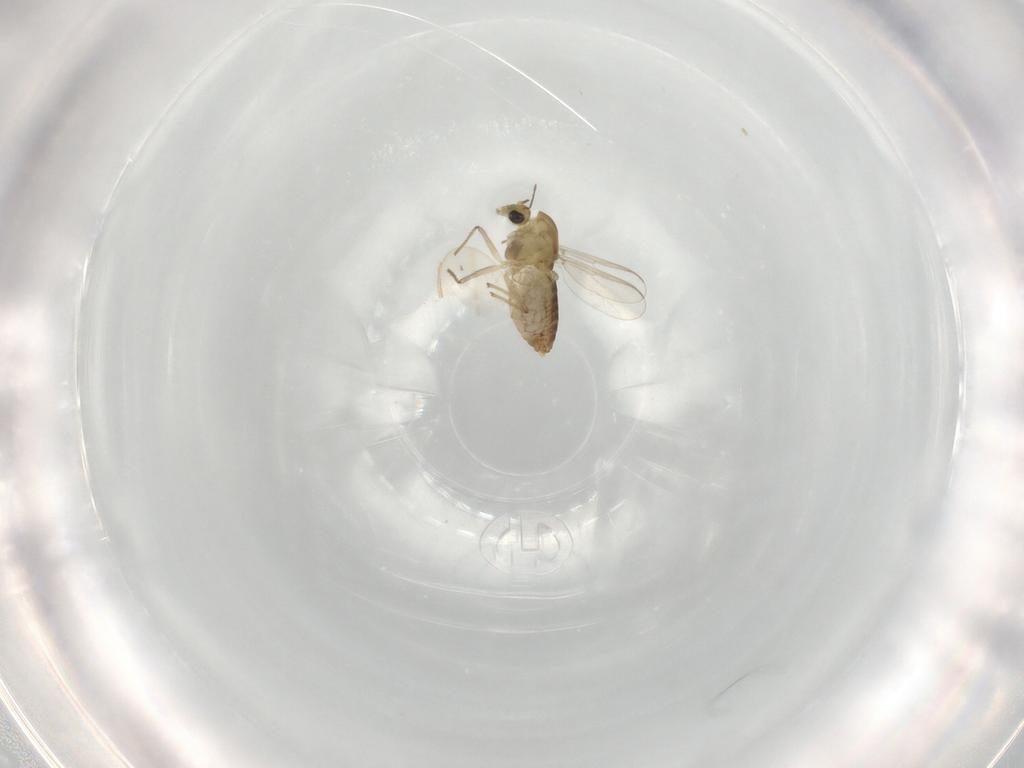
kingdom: Animalia
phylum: Arthropoda
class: Insecta
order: Diptera
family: Chironomidae
